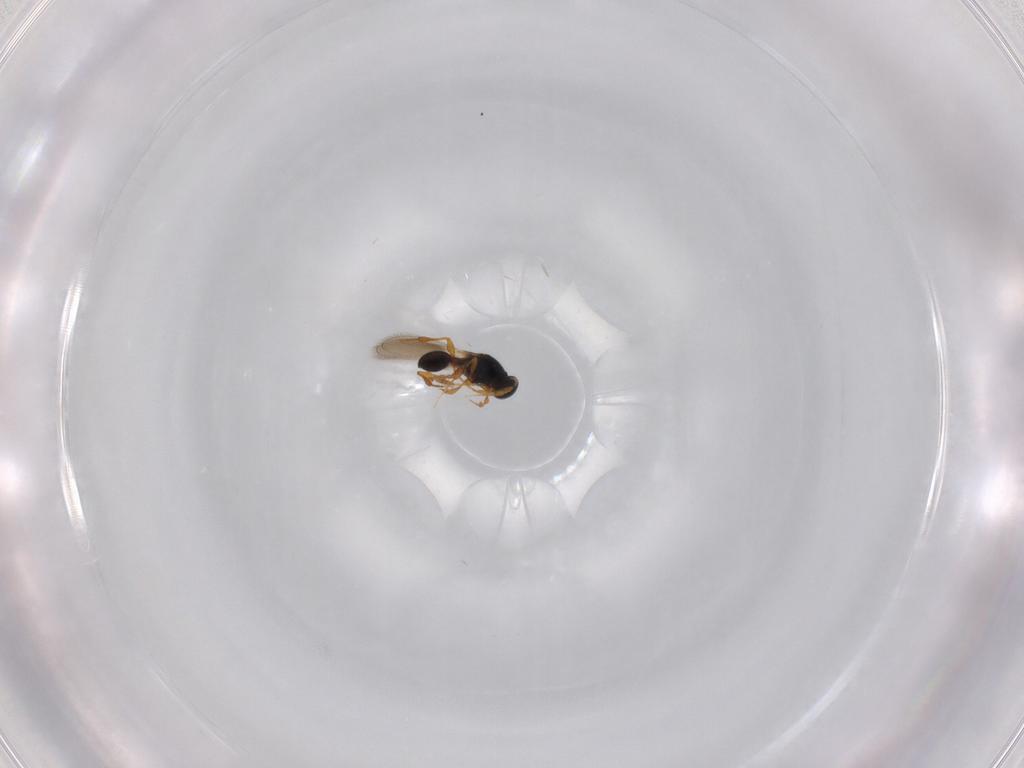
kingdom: Animalia
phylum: Arthropoda
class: Insecta
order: Hymenoptera
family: Platygastridae
